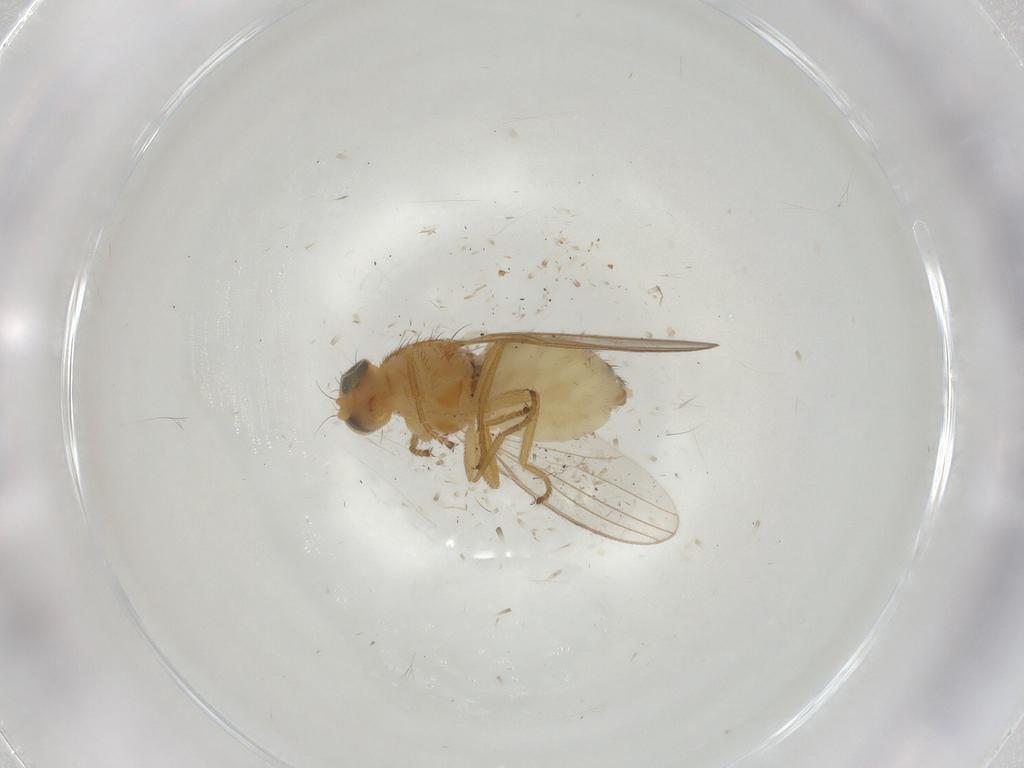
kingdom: Animalia
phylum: Arthropoda
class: Insecta
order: Diptera
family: Chyromyidae
